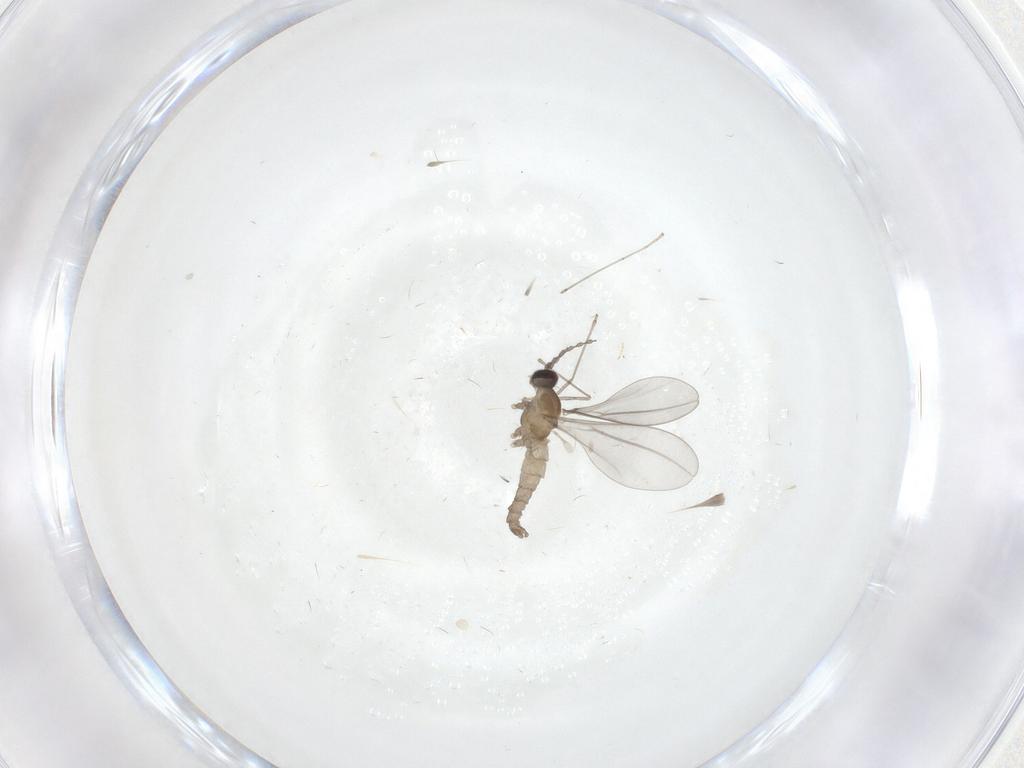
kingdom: Animalia
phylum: Arthropoda
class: Insecta
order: Diptera
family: Cecidomyiidae
